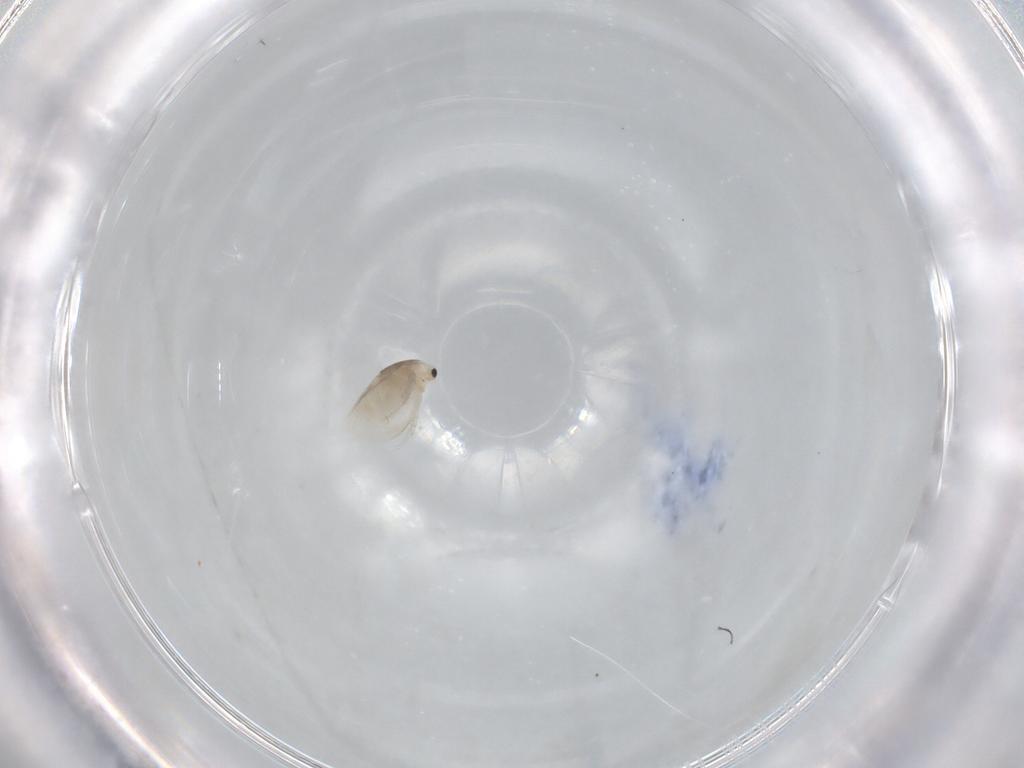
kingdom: Animalia
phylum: Arthropoda
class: Branchiopoda
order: Diplostraca
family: Daphniidae
